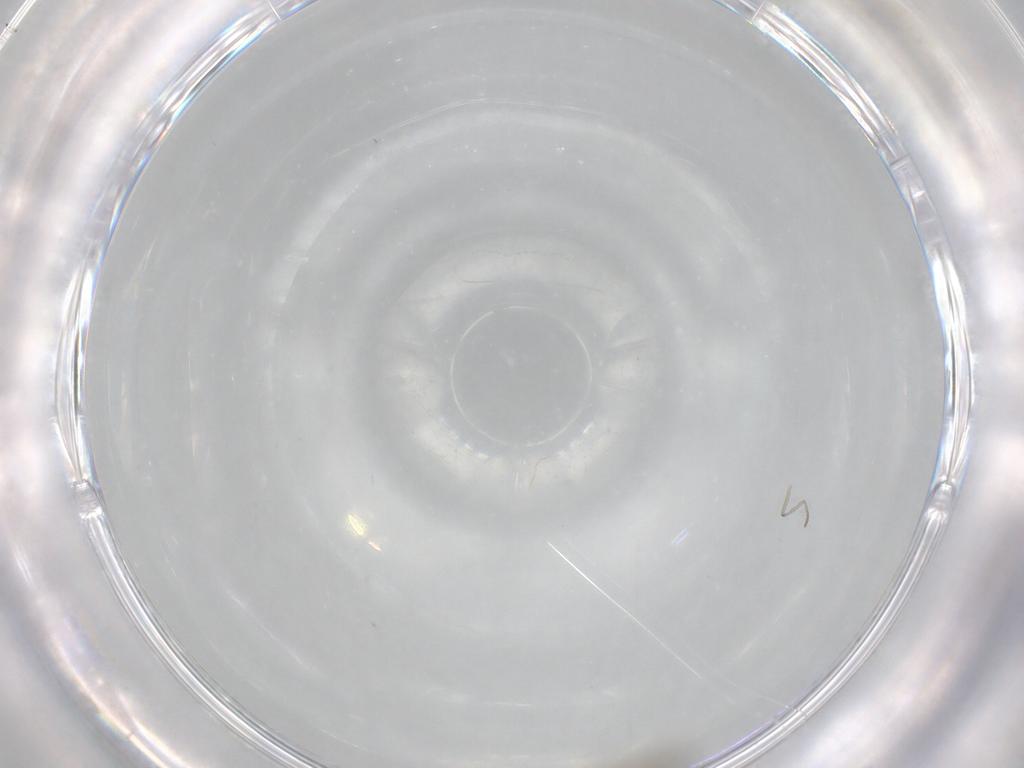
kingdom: Animalia
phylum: Arthropoda
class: Insecta
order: Diptera
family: Cecidomyiidae
